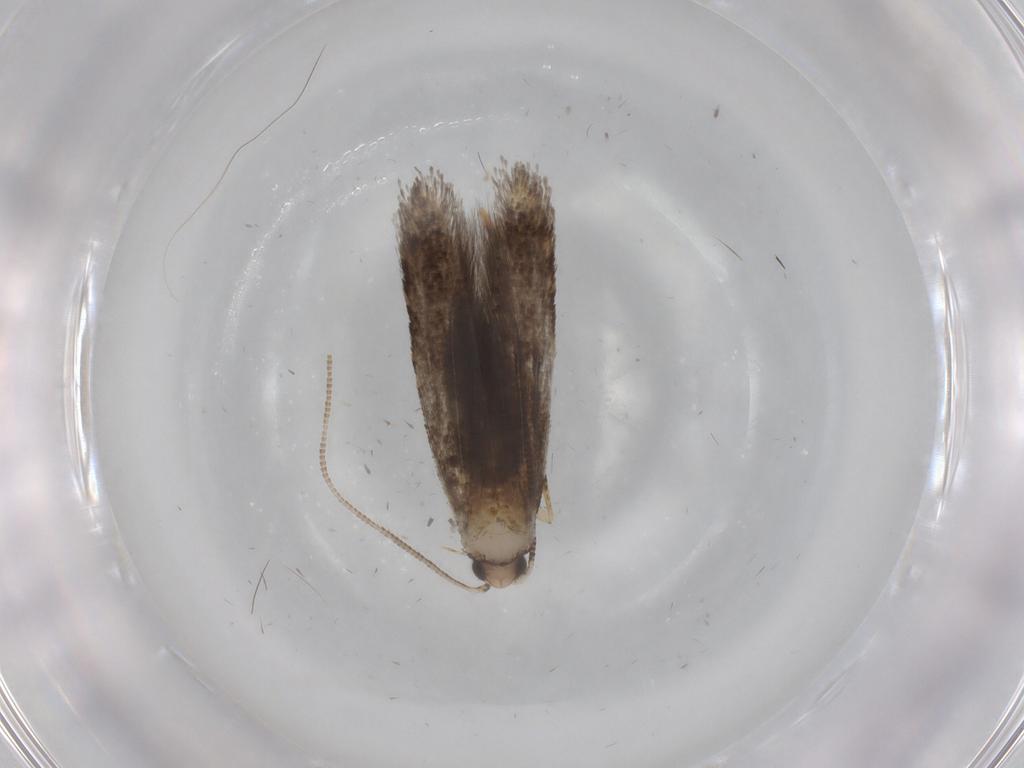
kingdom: Animalia
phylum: Arthropoda
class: Insecta
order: Lepidoptera
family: Tineidae
